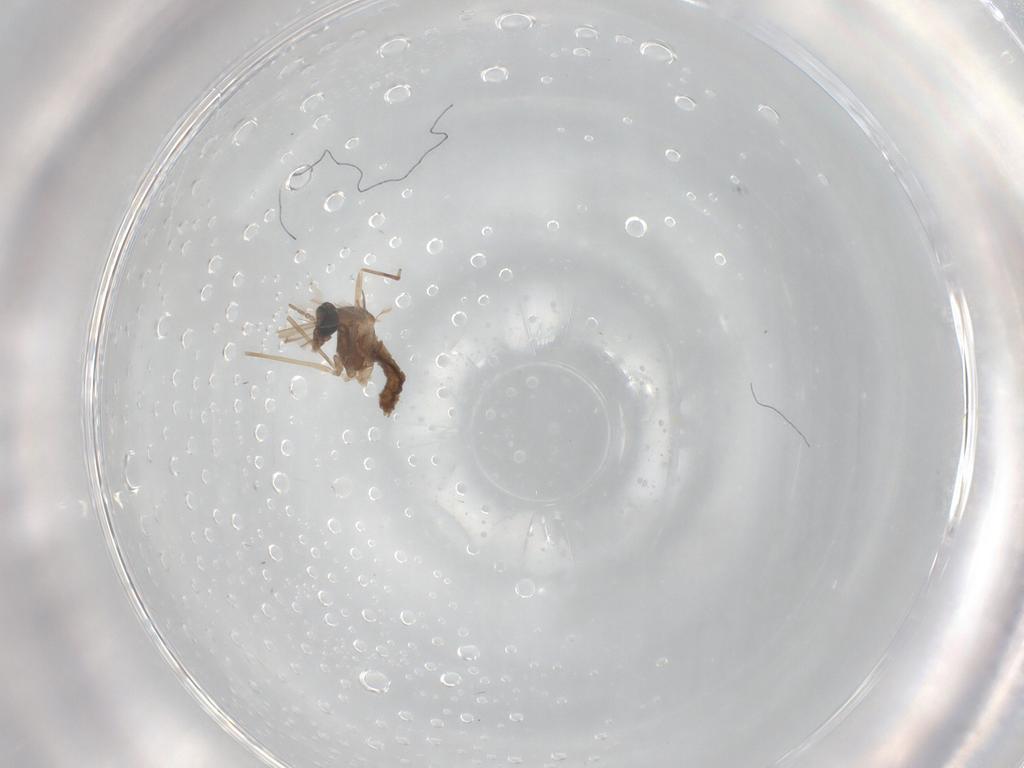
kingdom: Animalia
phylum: Arthropoda
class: Insecta
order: Diptera
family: Cecidomyiidae
